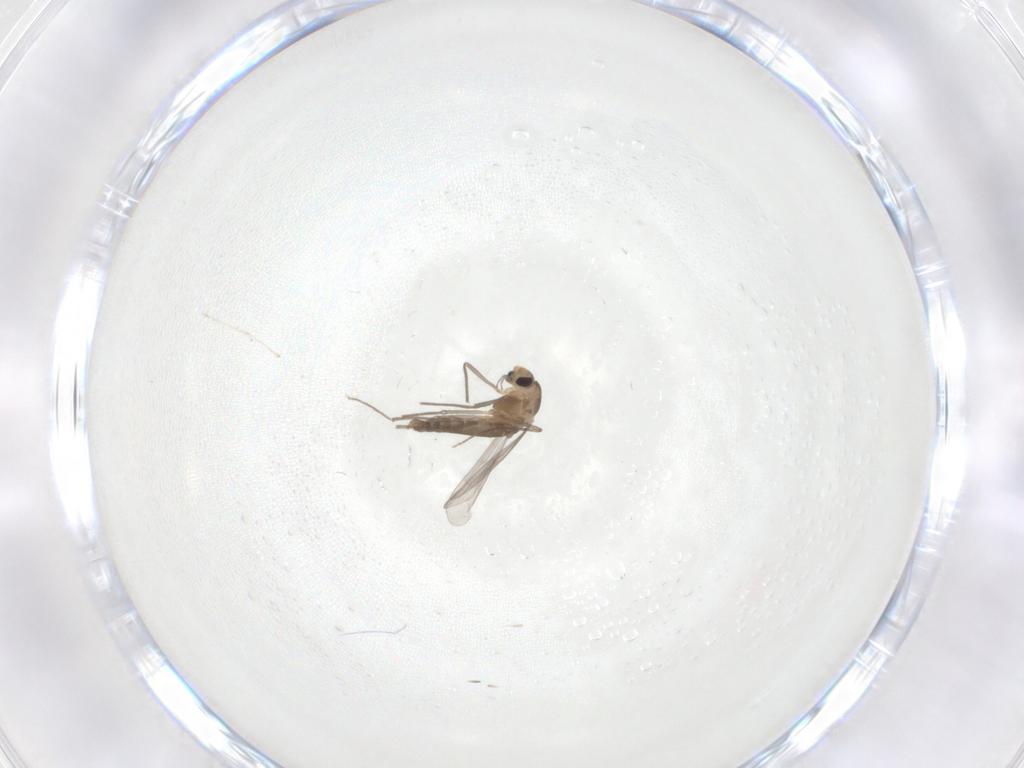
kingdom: Animalia
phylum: Arthropoda
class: Insecta
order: Diptera
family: Chironomidae
